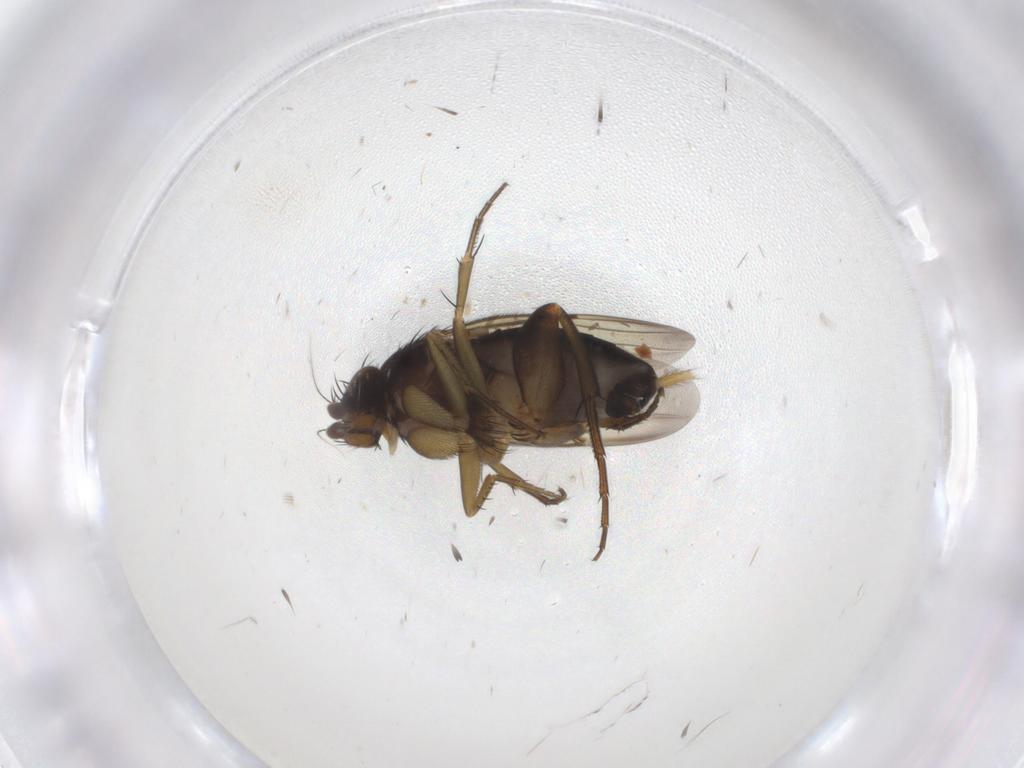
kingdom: Animalia
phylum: Arthropoda
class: Insecta
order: Diptera
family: Phoridae
